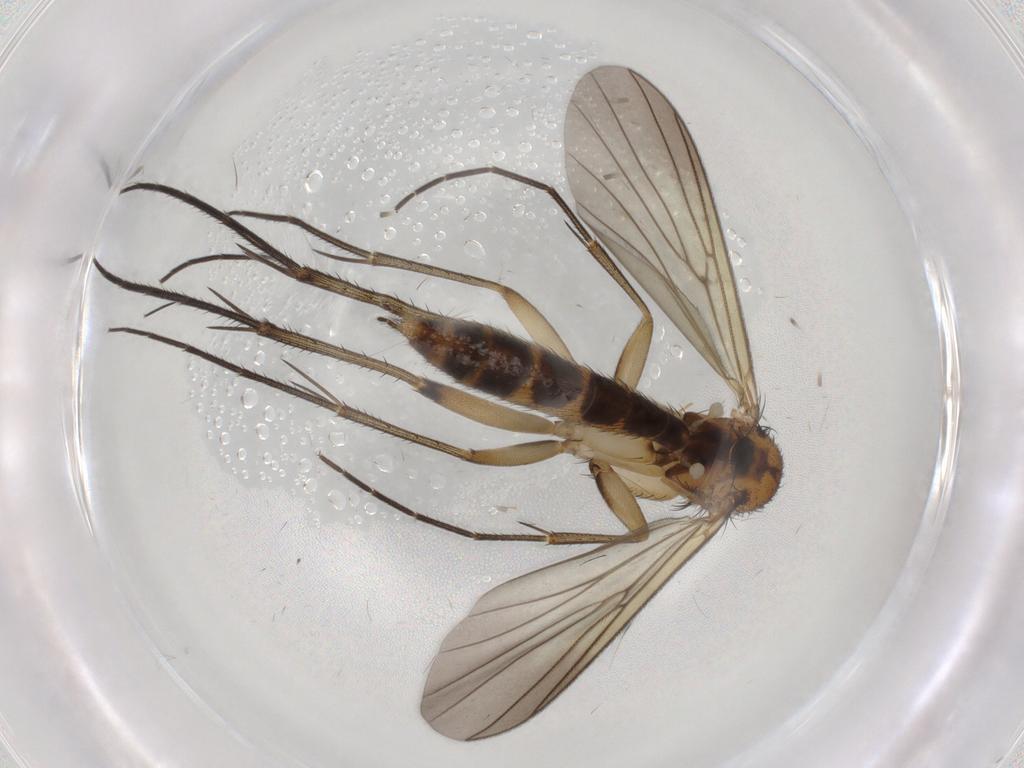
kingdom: Animalia
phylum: Arthropoda
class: Insecta
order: Diptera
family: Mycetophilidae
